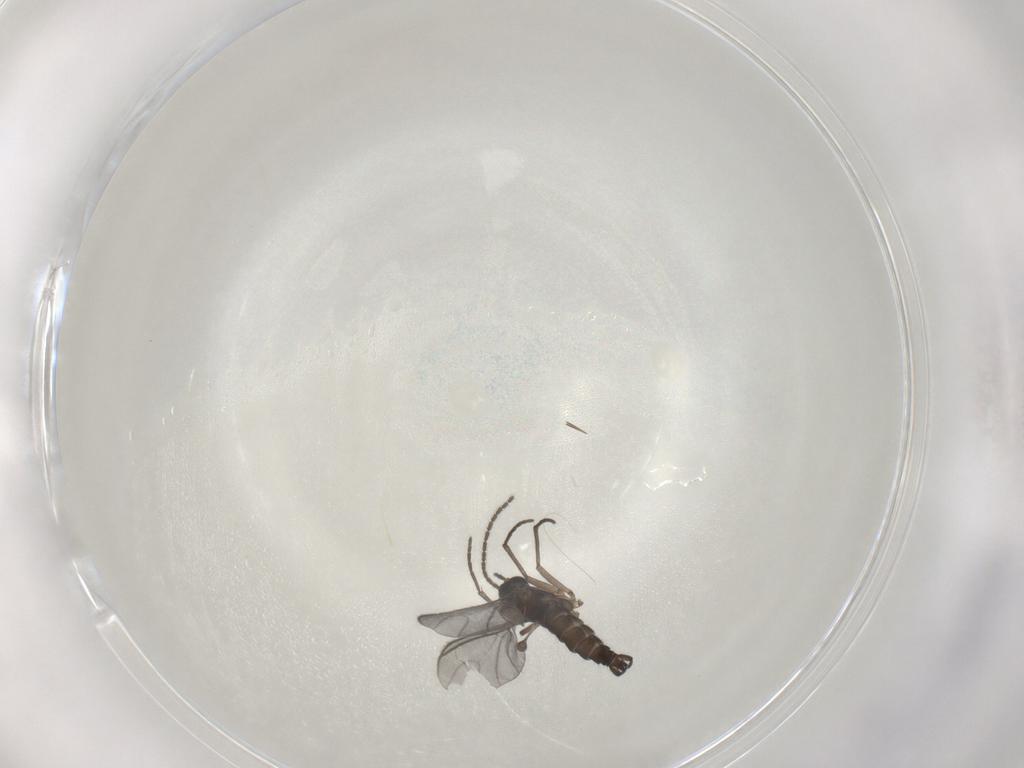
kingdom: Animalia
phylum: Arthropoda
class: Insecta
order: Diptera
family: Sciaridae
